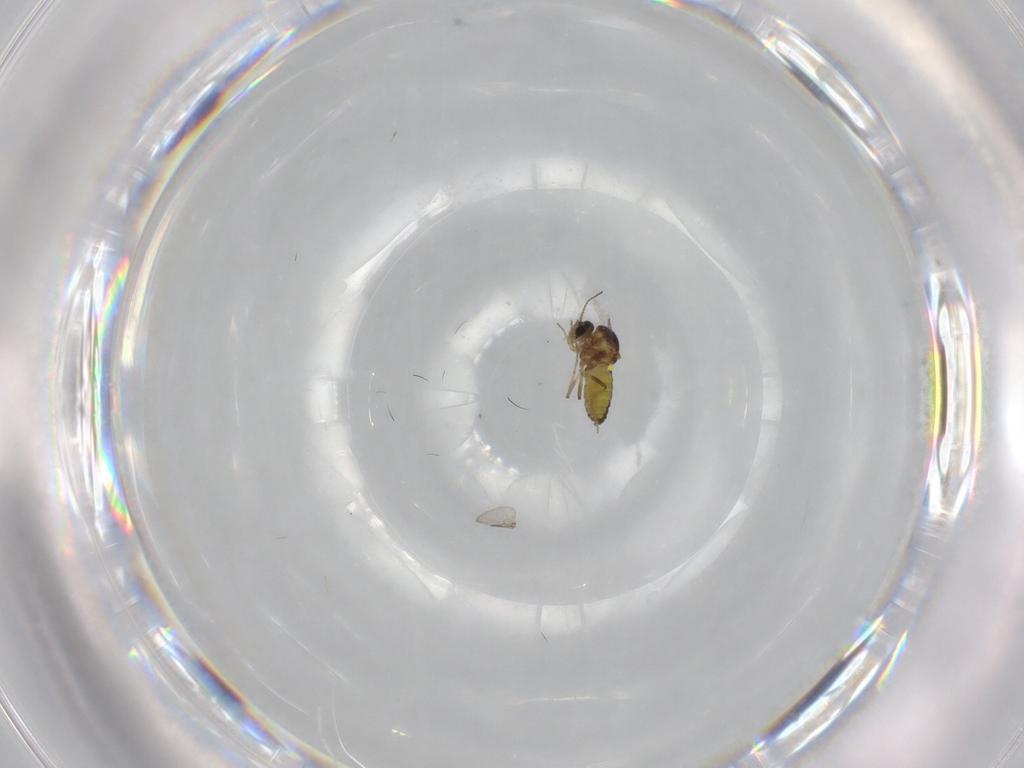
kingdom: Animalia
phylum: Arthropoda
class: Insecta
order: Diptera
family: Ceratopogonidae
